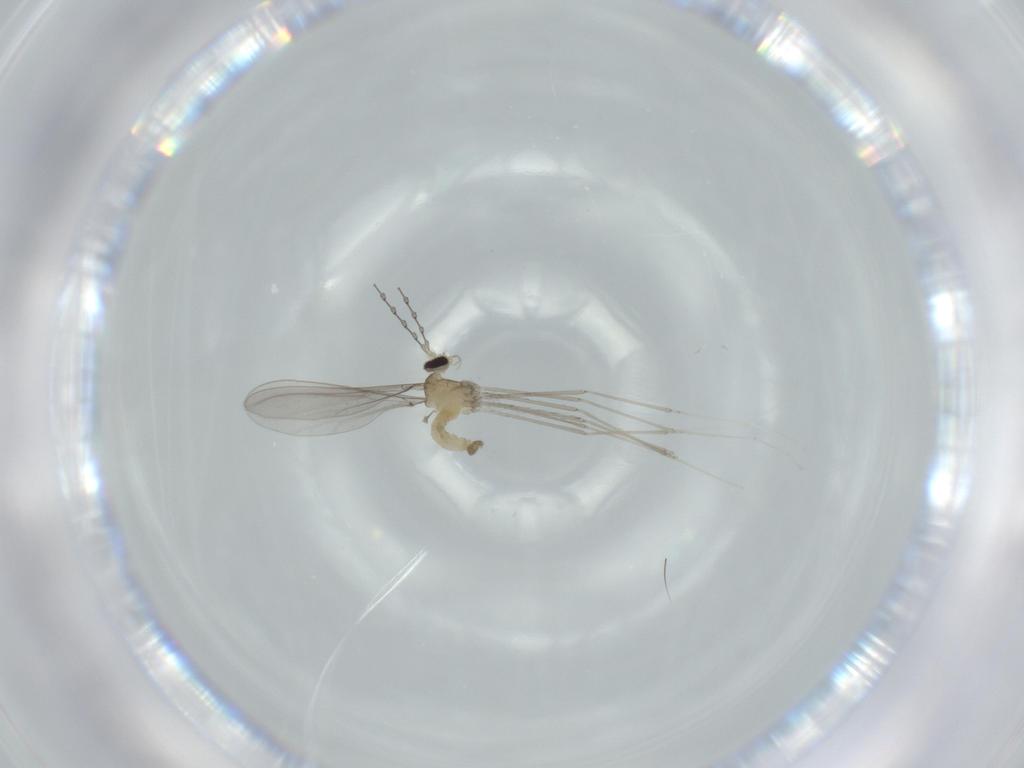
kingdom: Animalia
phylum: Arthropoda
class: Insecta
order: Diptera
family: Cecidomyiidae
